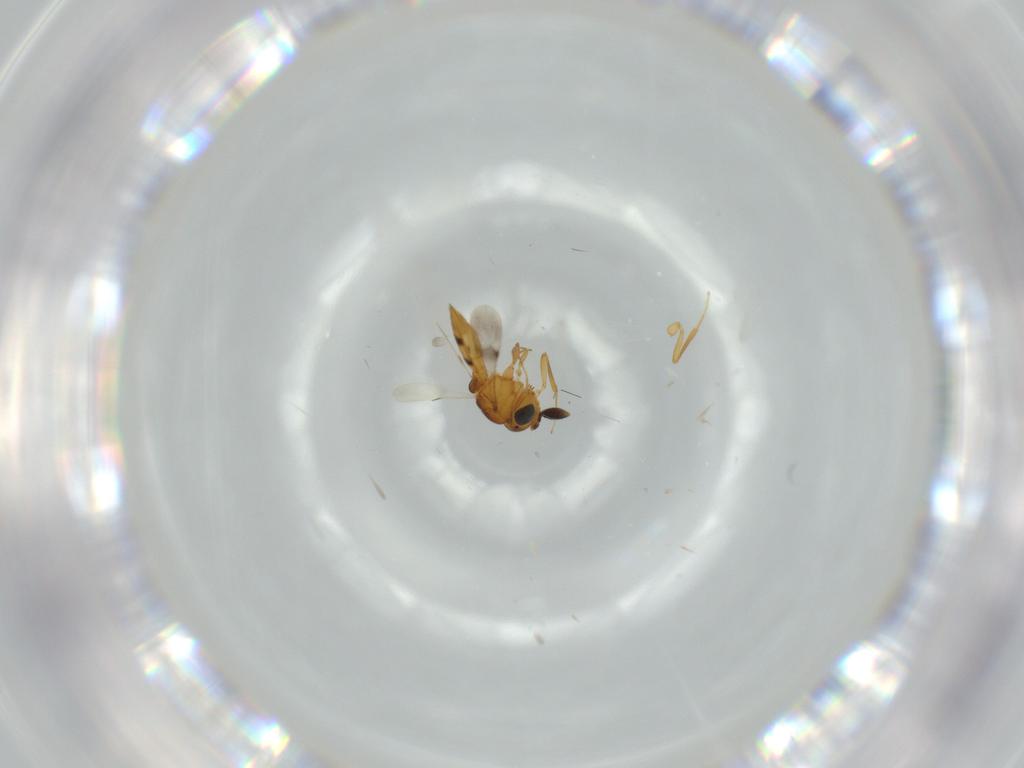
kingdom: Animalia
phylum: Arthropoda
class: Insecta
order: Hymenoptera
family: Scelionidae
